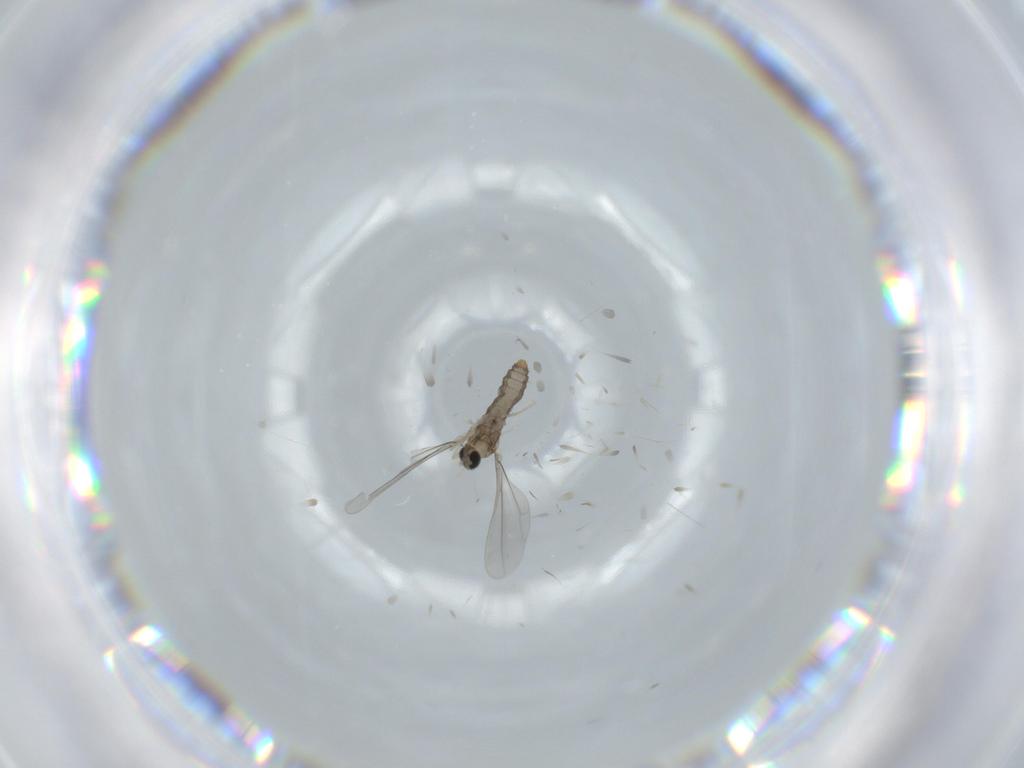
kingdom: Animalia
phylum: Arthropoda
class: Insecta
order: Diptera
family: Cecidomyiidae
